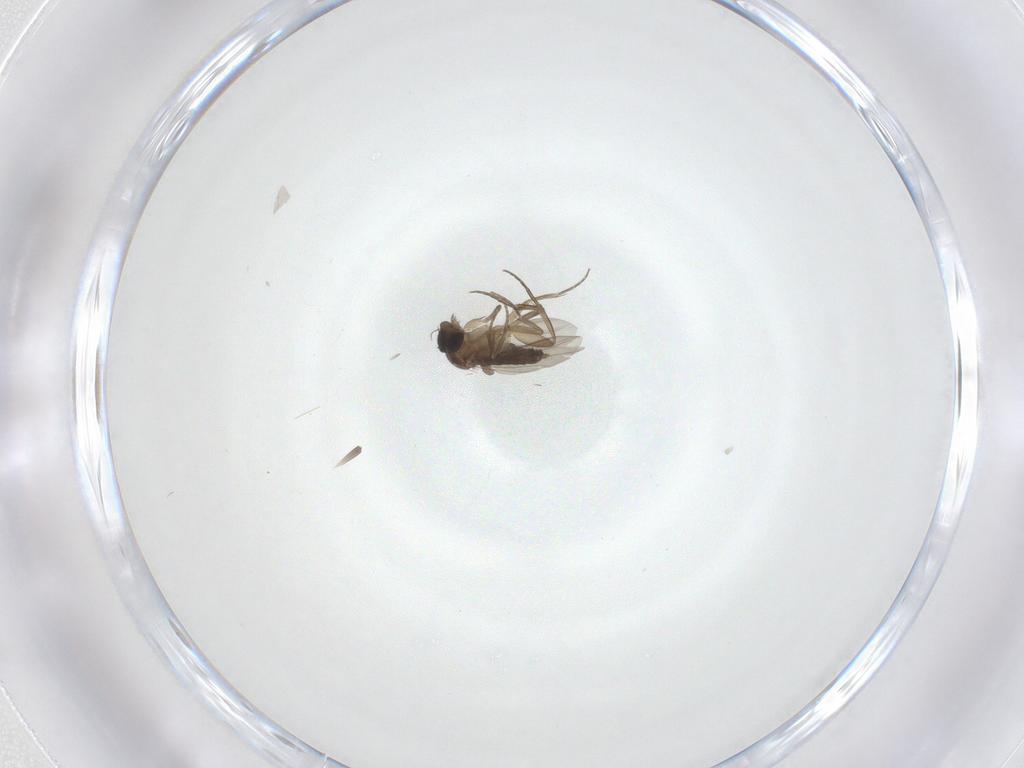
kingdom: Animalia
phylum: Arthropoda
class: Insecta
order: Diptera
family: Phoridae
